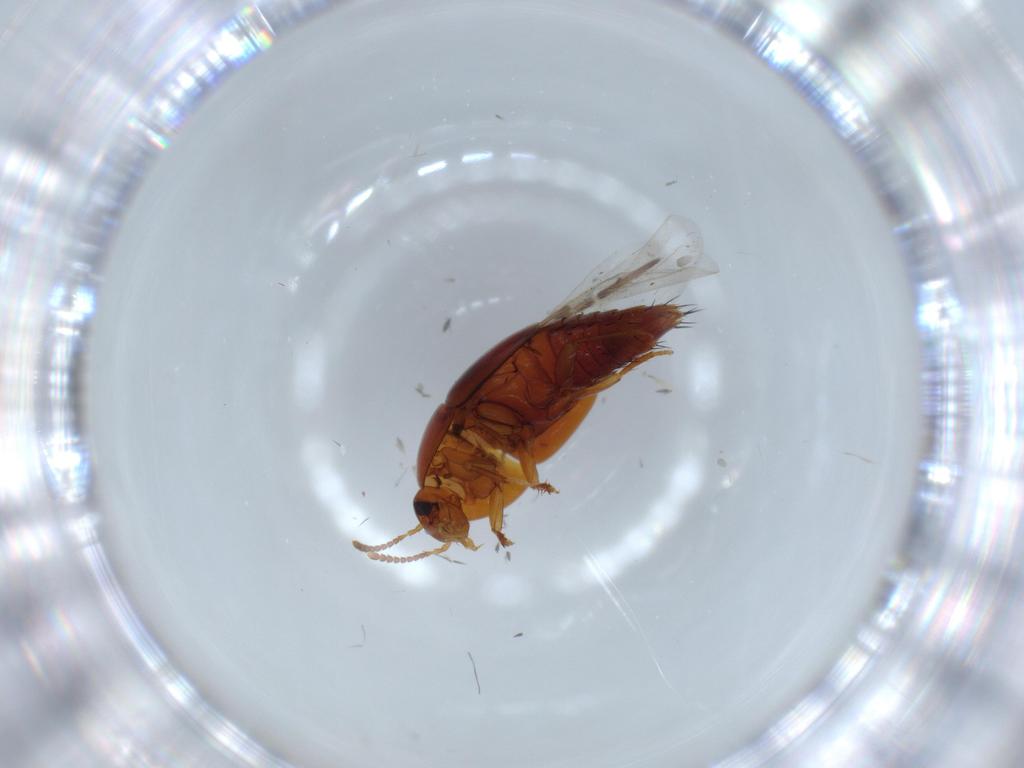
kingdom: Animalia
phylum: Arthropoda
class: Insecta
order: Coleoptera
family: Staphylinidae
